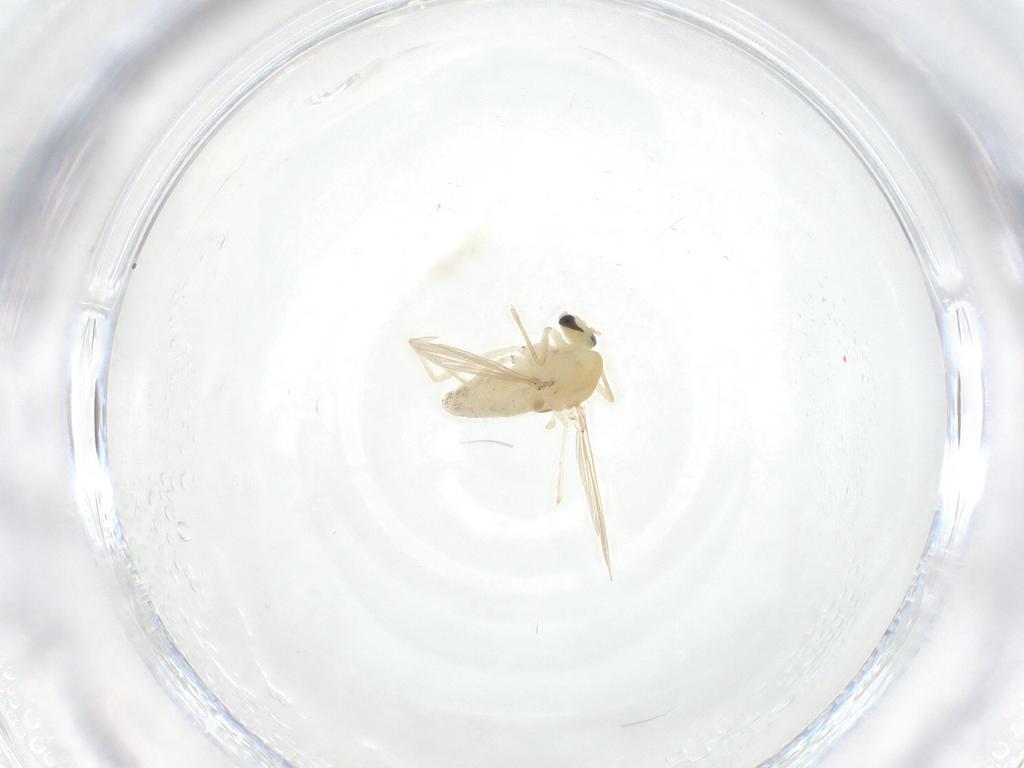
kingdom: Animalia
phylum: Arthropoda
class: Insecta
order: Diptera
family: Chironomidae
